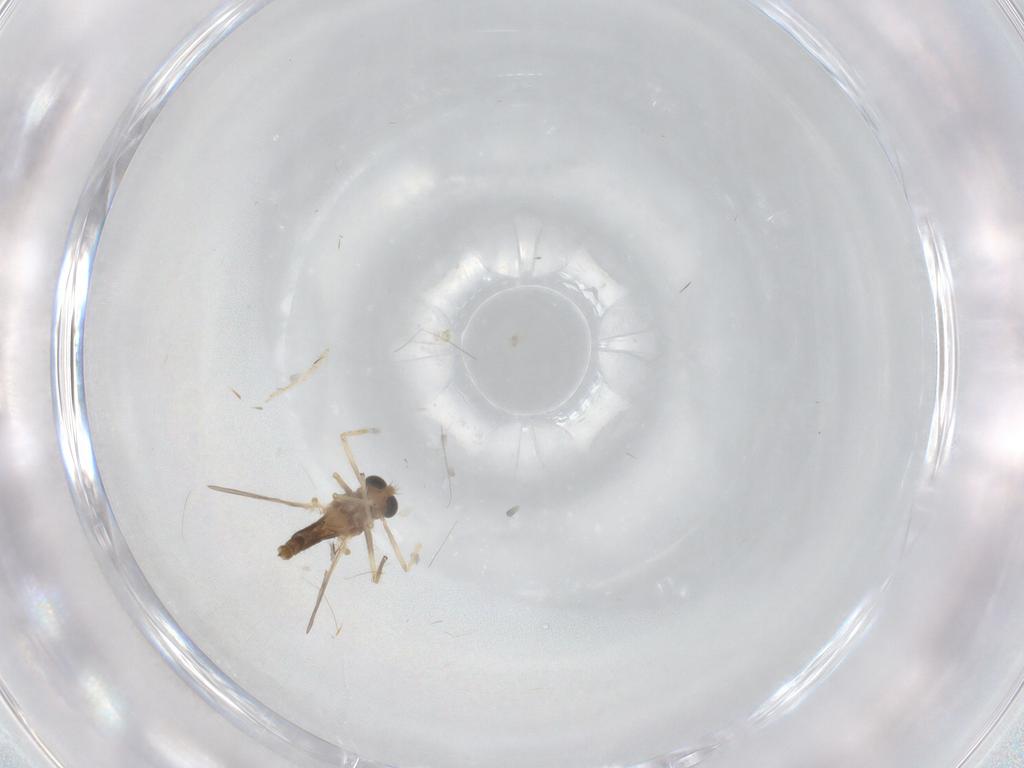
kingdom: Animalia
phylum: Arthropoda
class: Insecta
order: Diptera
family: Chironomidae
